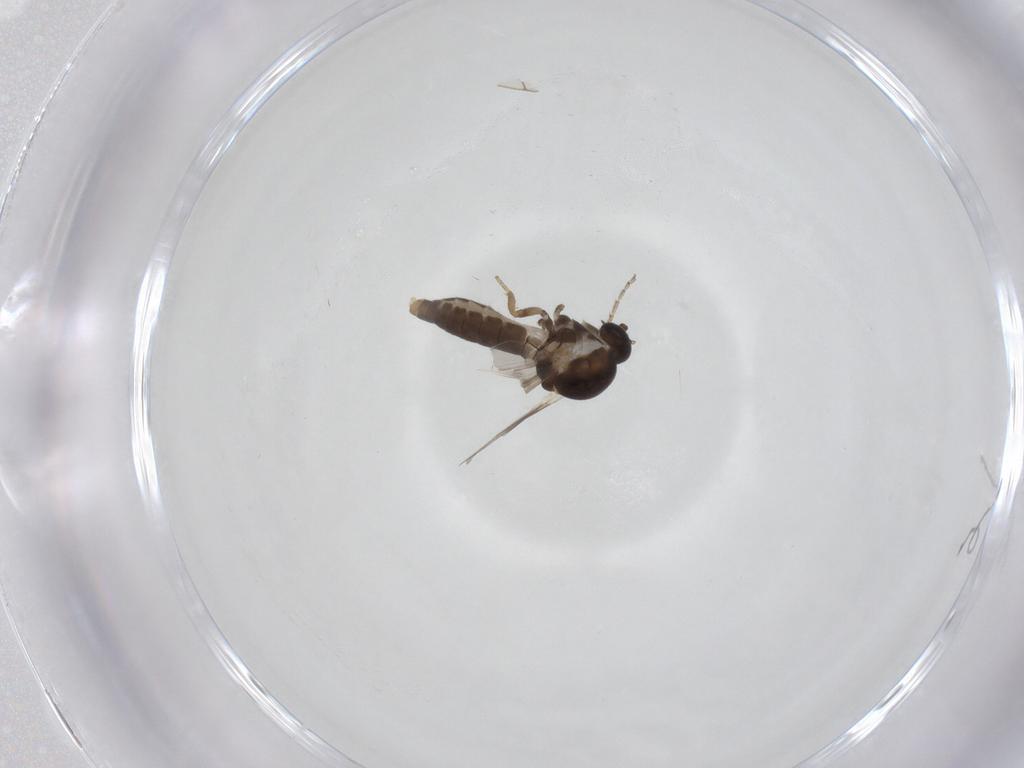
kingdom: Animalia
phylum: Arthropoda
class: Insecta
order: Diptera
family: Ceratopogonidae
